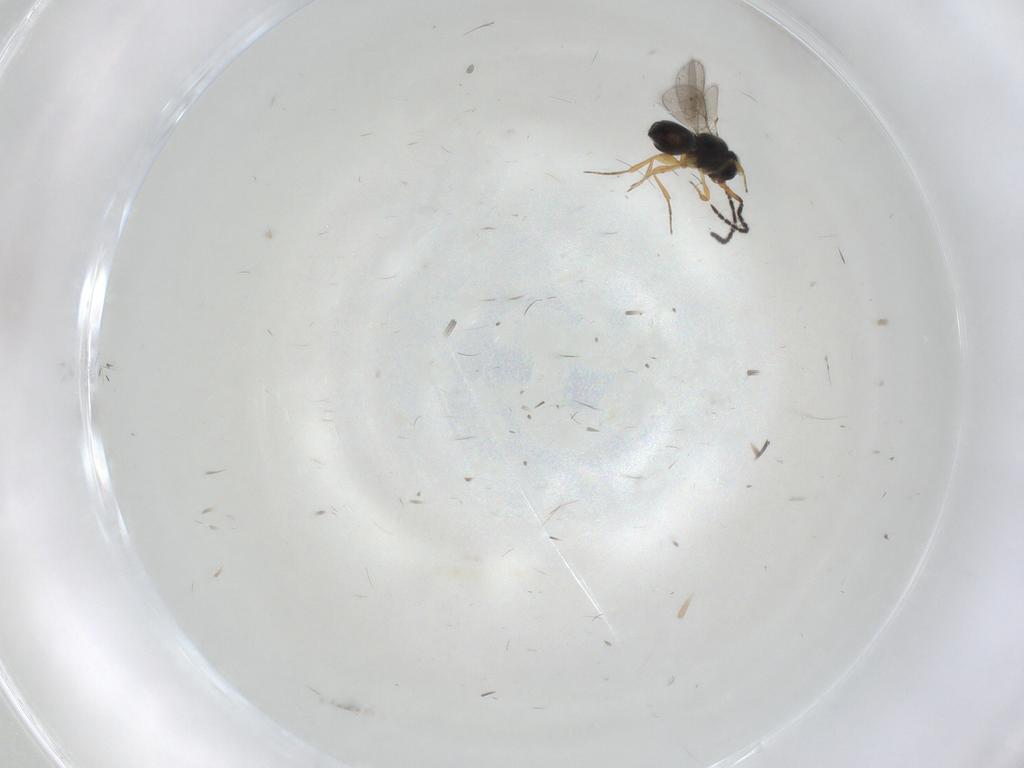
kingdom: Animalia
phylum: Arthropoda
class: Insecta
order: Hymenoptera
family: Scelionidae
